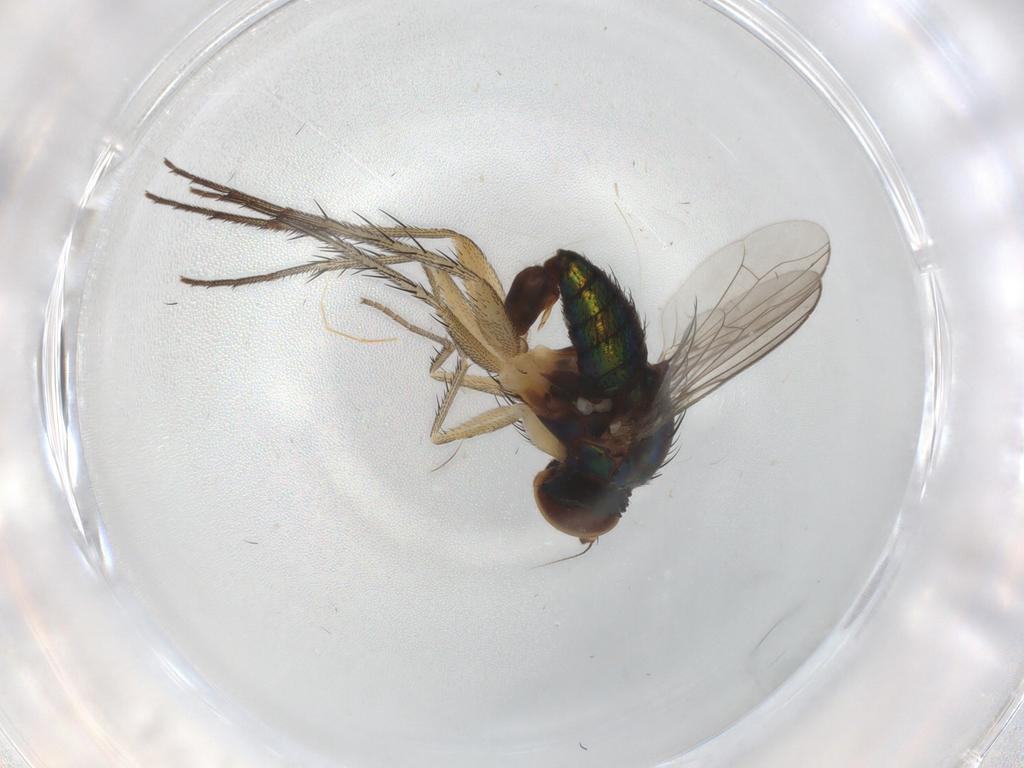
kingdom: Animalia
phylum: Arthropoda
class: Insecta
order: Diptera
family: Dolichopodidae
